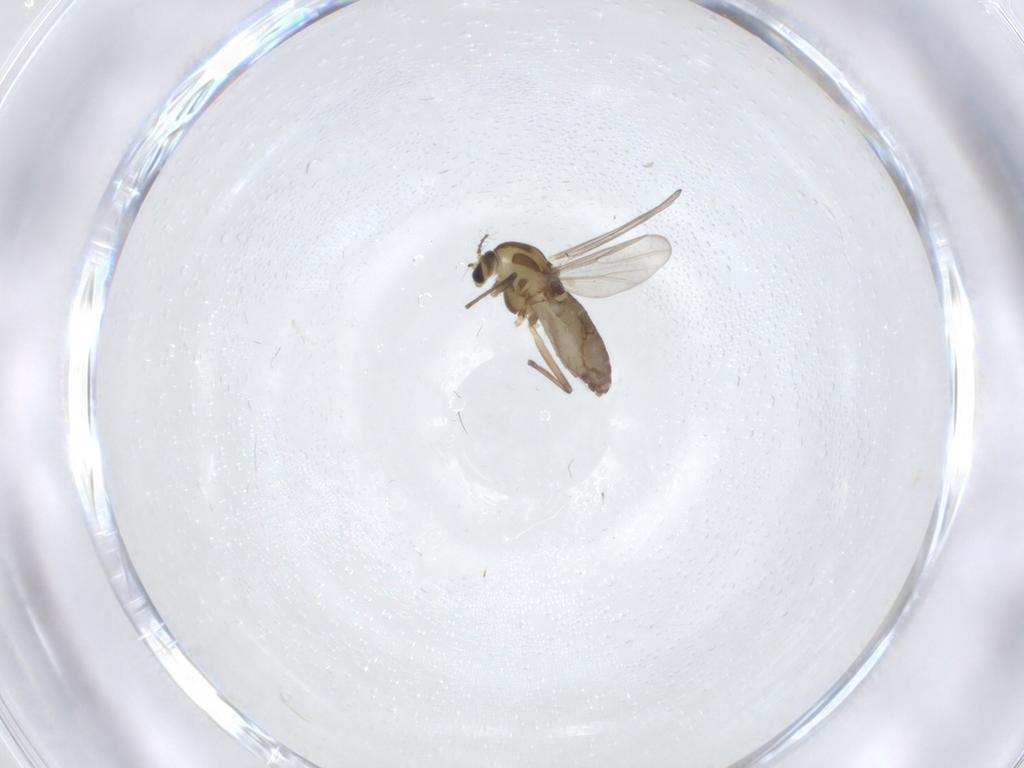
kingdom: Animalia
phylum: Arthropoda
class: Insecta
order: Diptera
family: Chironomidae
